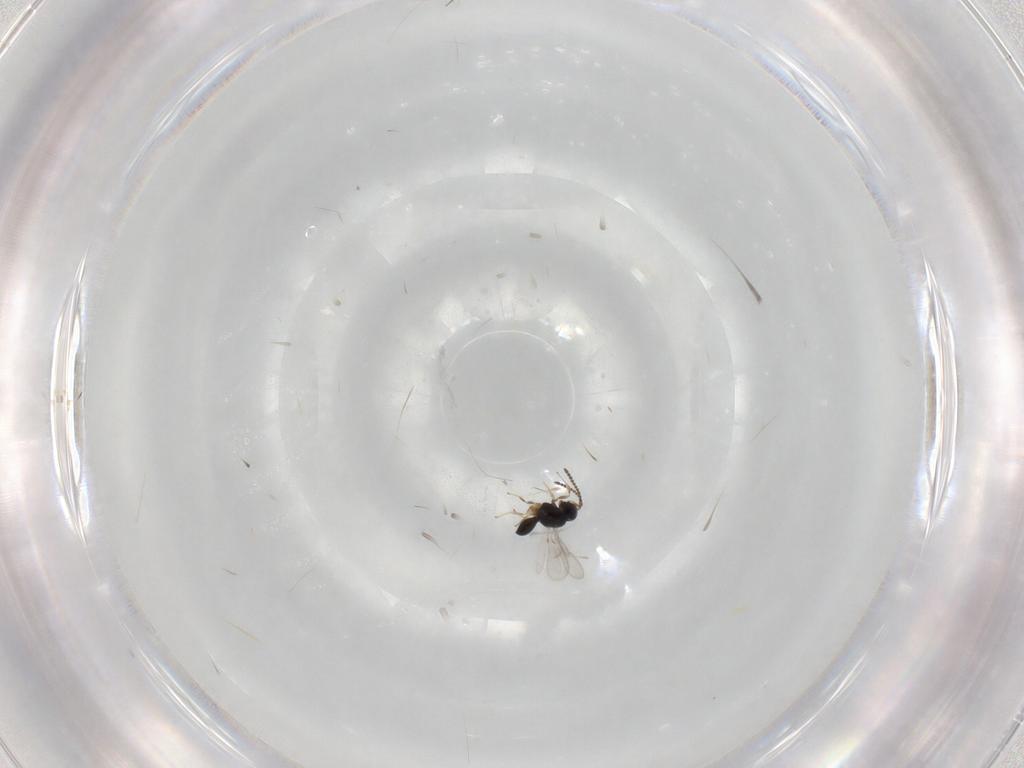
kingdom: Animalia
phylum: Arthropoda
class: Insecta
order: Hymenoptera
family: Scelionidae
